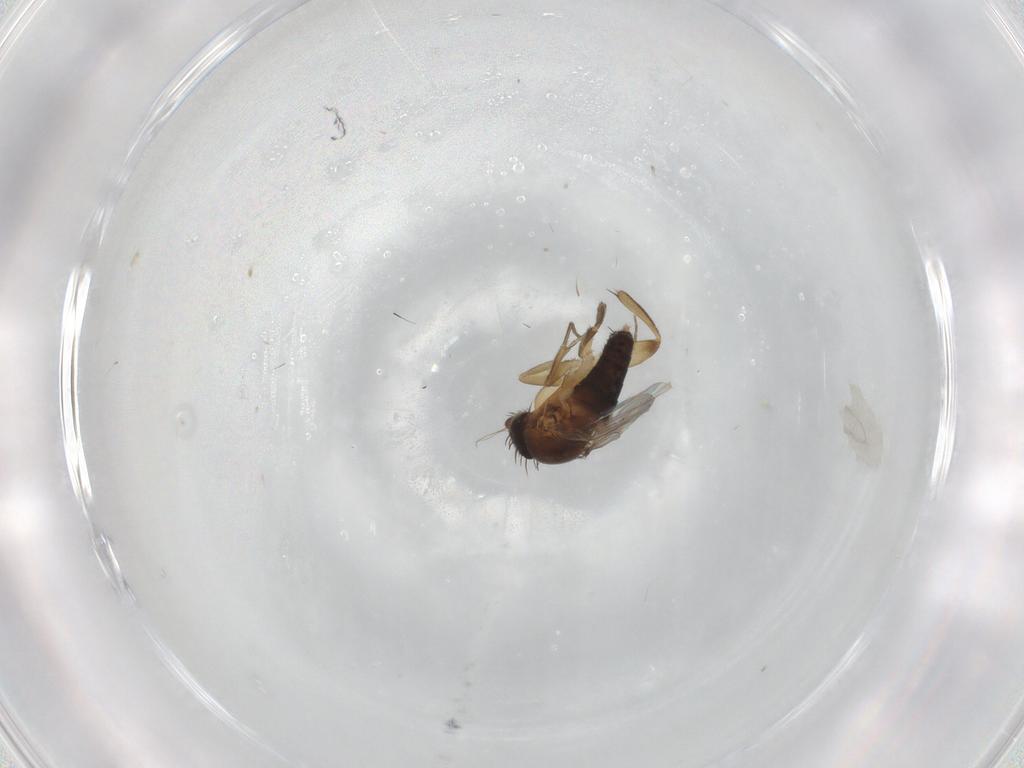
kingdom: Animalia
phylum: Arthropoda
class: Insecta
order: Diptera
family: Phoridae
